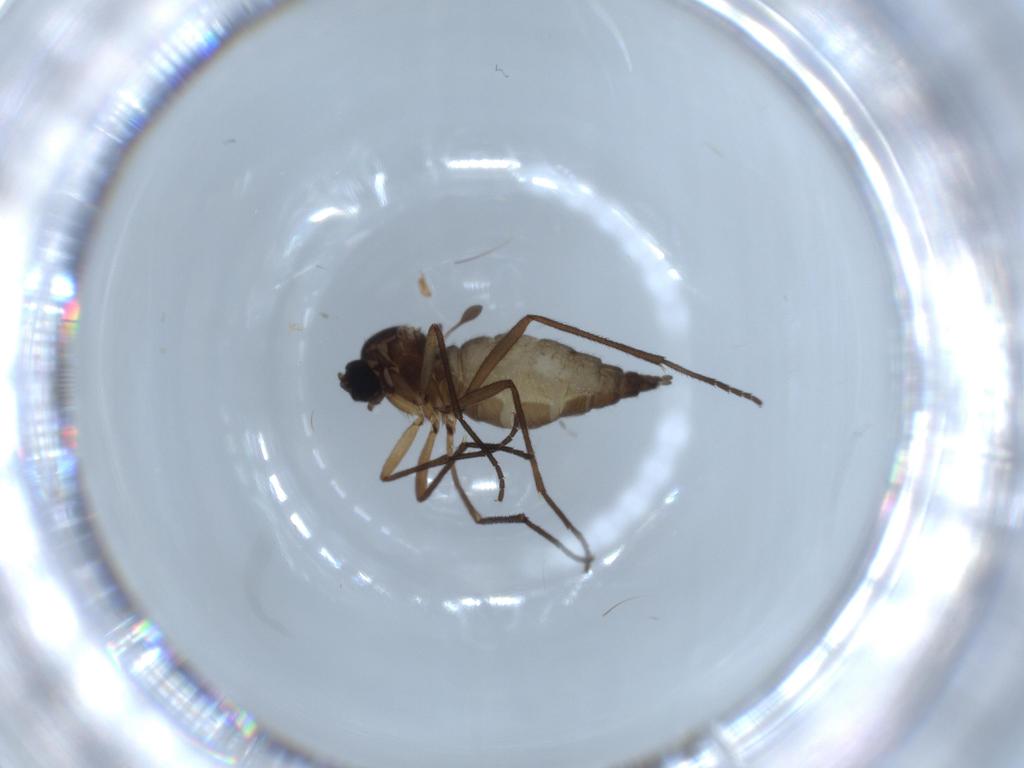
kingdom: Animalia
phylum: Arthropoda
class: Insecta
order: Diptera
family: Sciaridae
